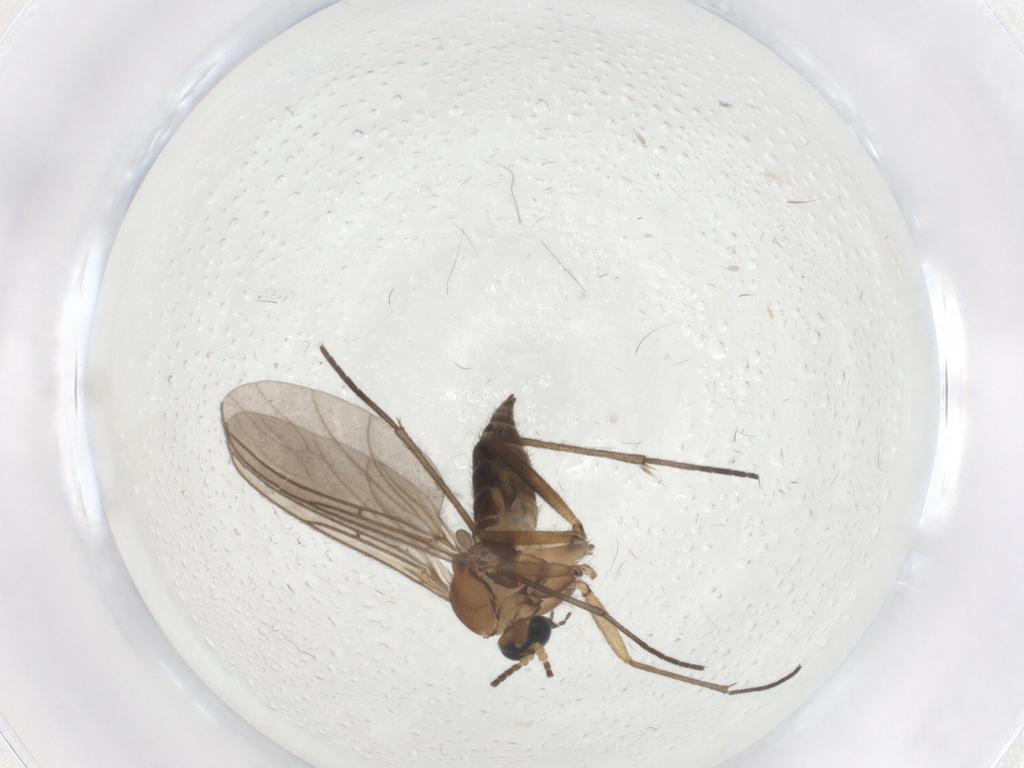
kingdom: Animalia
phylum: Arthropoda
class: Insecta
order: Diptera
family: Sciaridae
